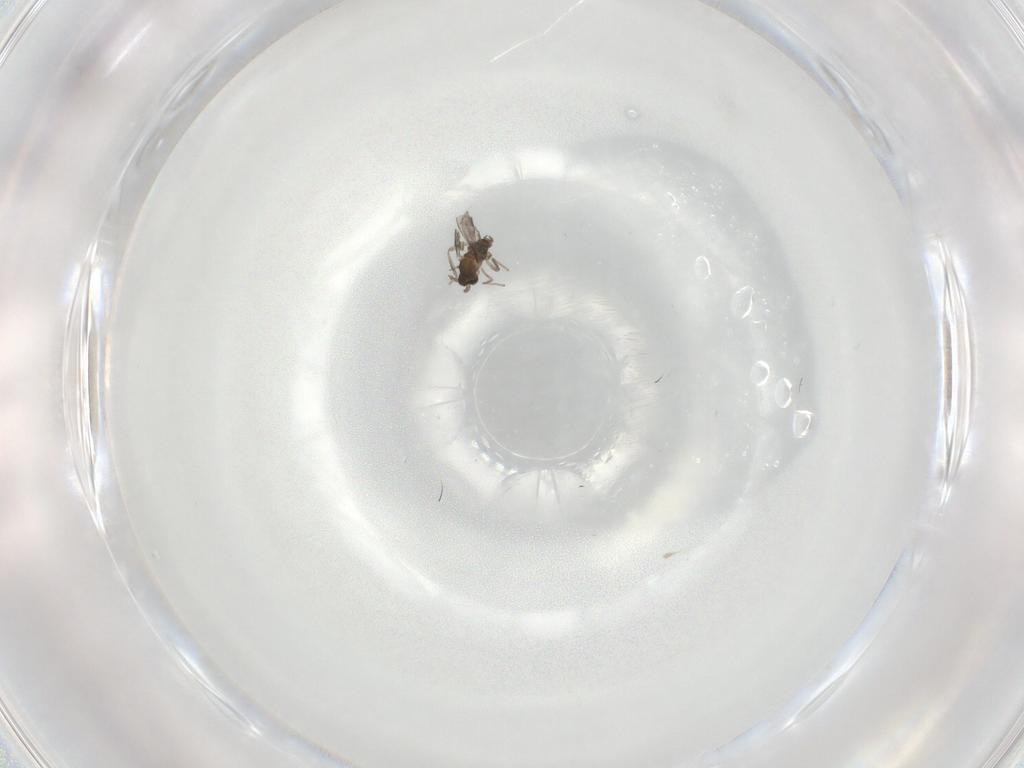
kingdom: Animalia
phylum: Arthropoda
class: Insecta
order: Diptera
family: Cecidomyiidae
